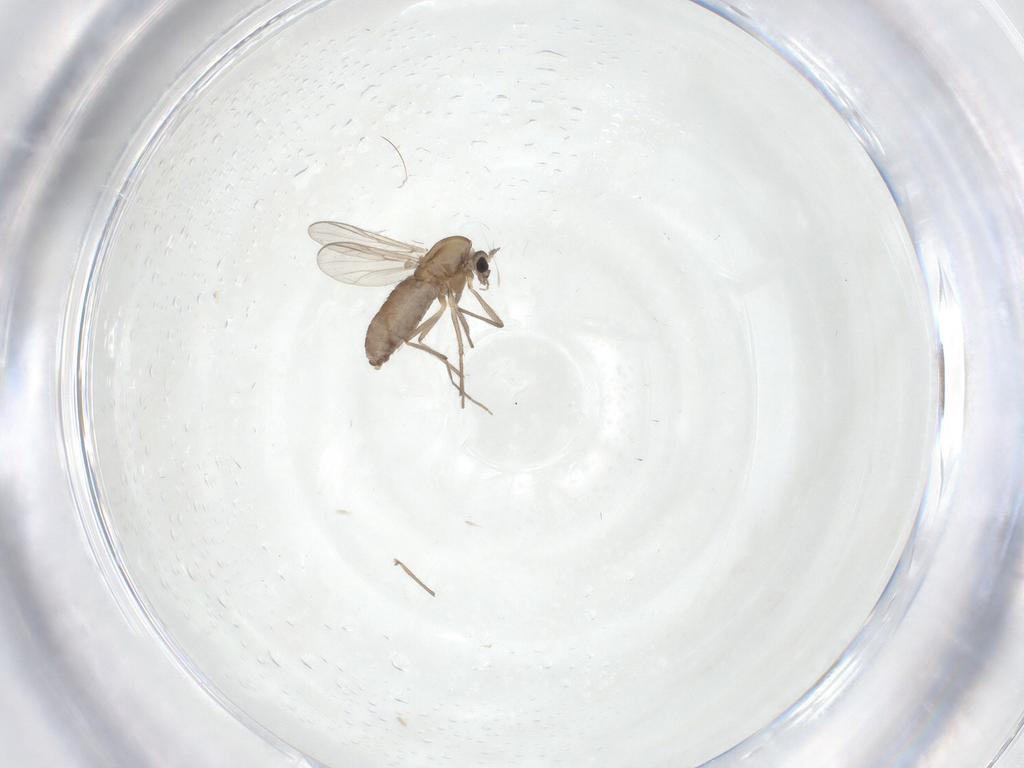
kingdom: Animalia
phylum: Arthropoda
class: Insecta
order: Diptera
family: Chironomidae
